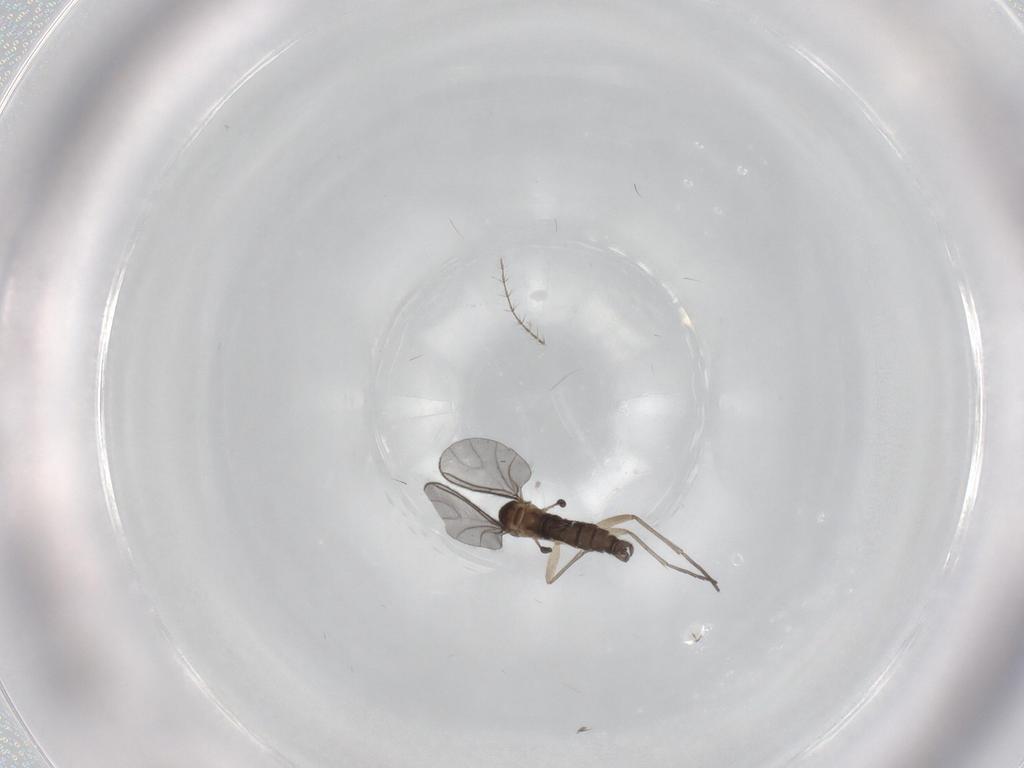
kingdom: Animalia
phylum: Arthropoda
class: Insecta
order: Diptera
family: Sciaridae
